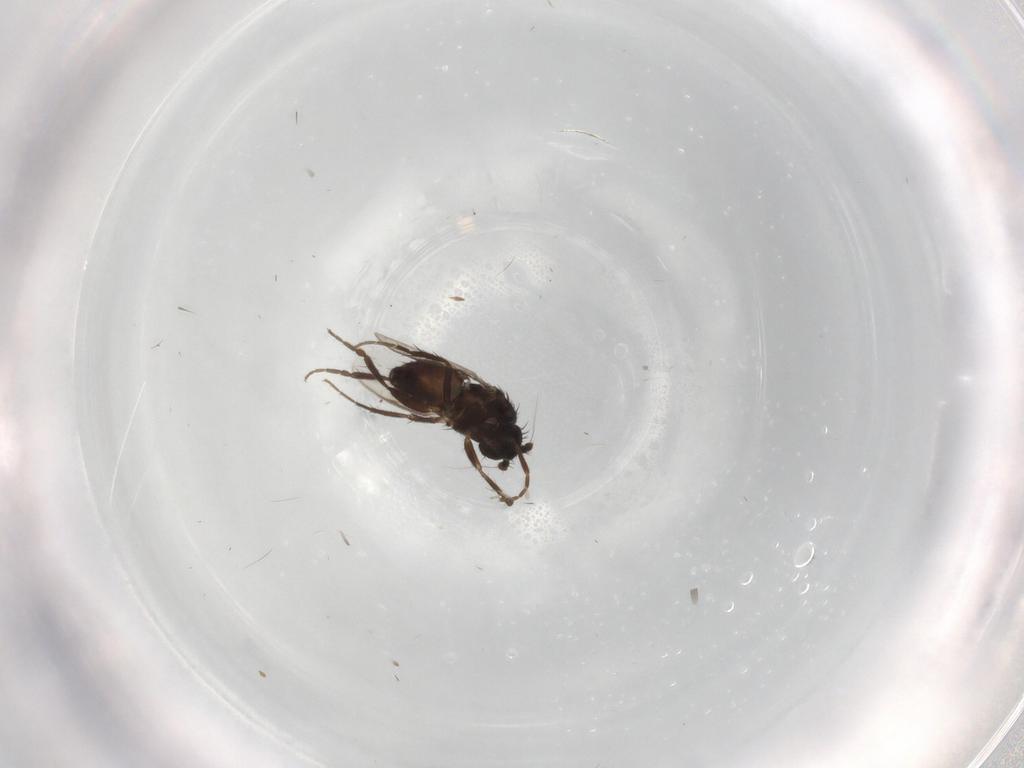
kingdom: Animalia
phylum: Arthropoda
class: Insecta
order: Diptera
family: Sphaeroceridae
